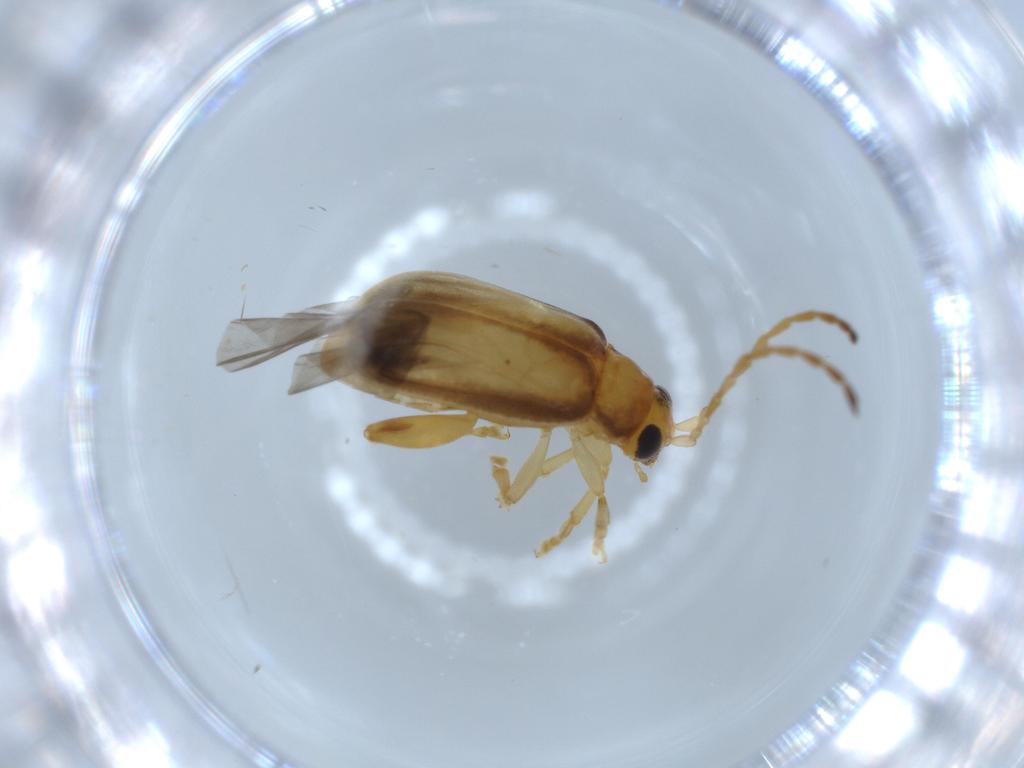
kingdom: Animalia
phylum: Arthropoda
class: Insecta
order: Coleoptera
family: Chrysomelidae
